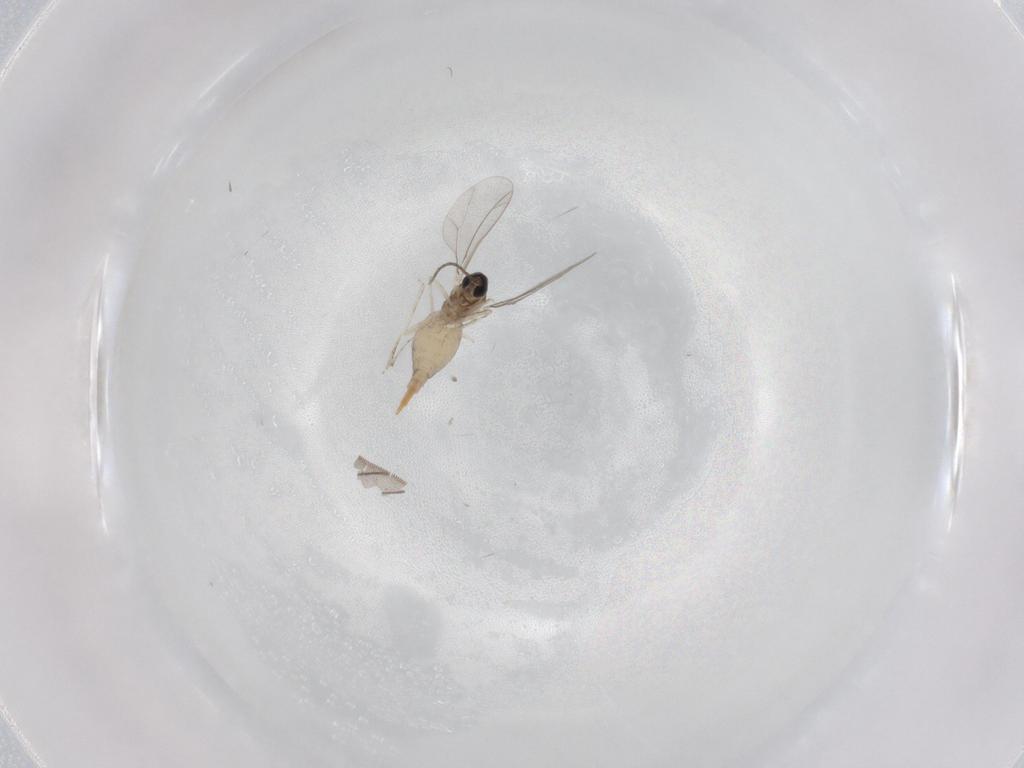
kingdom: Animalia
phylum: Arthropoda
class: Insecta
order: Diptera
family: Cecidomyiidae
